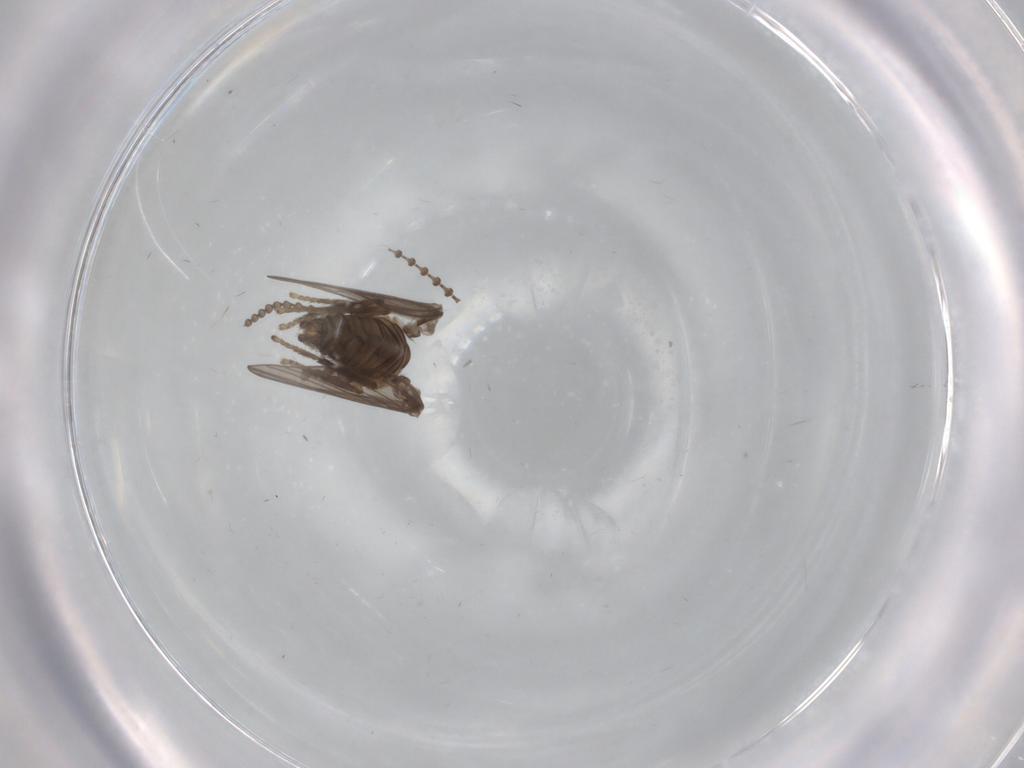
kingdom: Animalia
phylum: Arthropoda
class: Insecta
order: Diptera
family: Psychodidae
